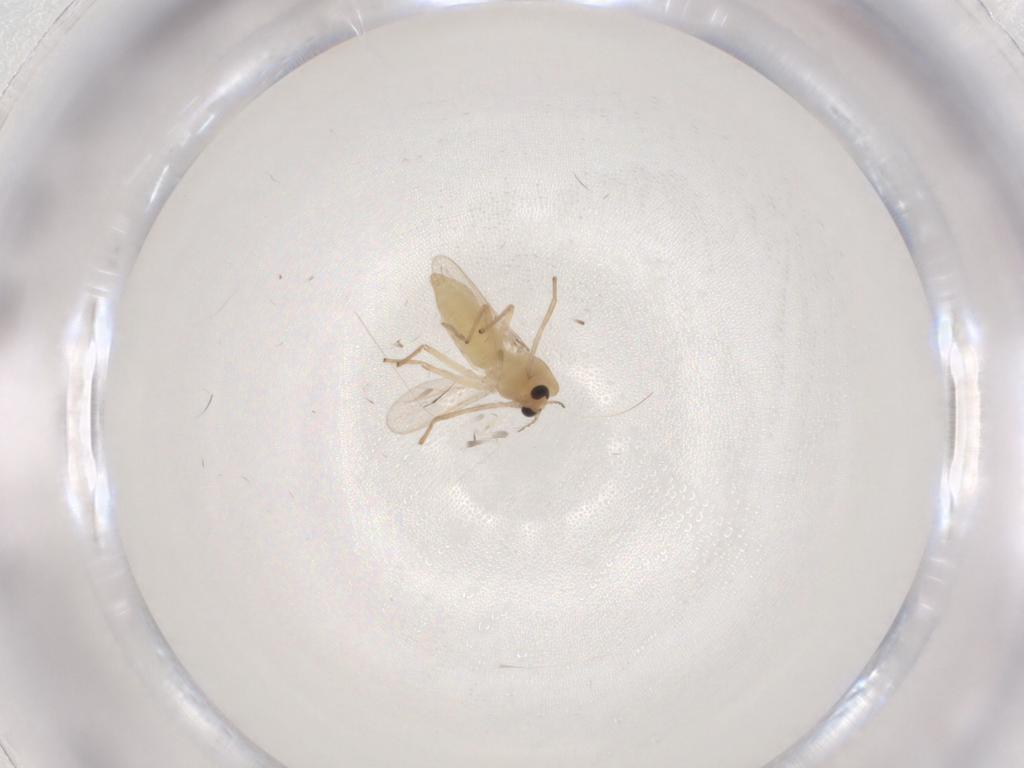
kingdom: Animalia
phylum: Arthropoda
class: Insecta
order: Diptera
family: Chironomidae
